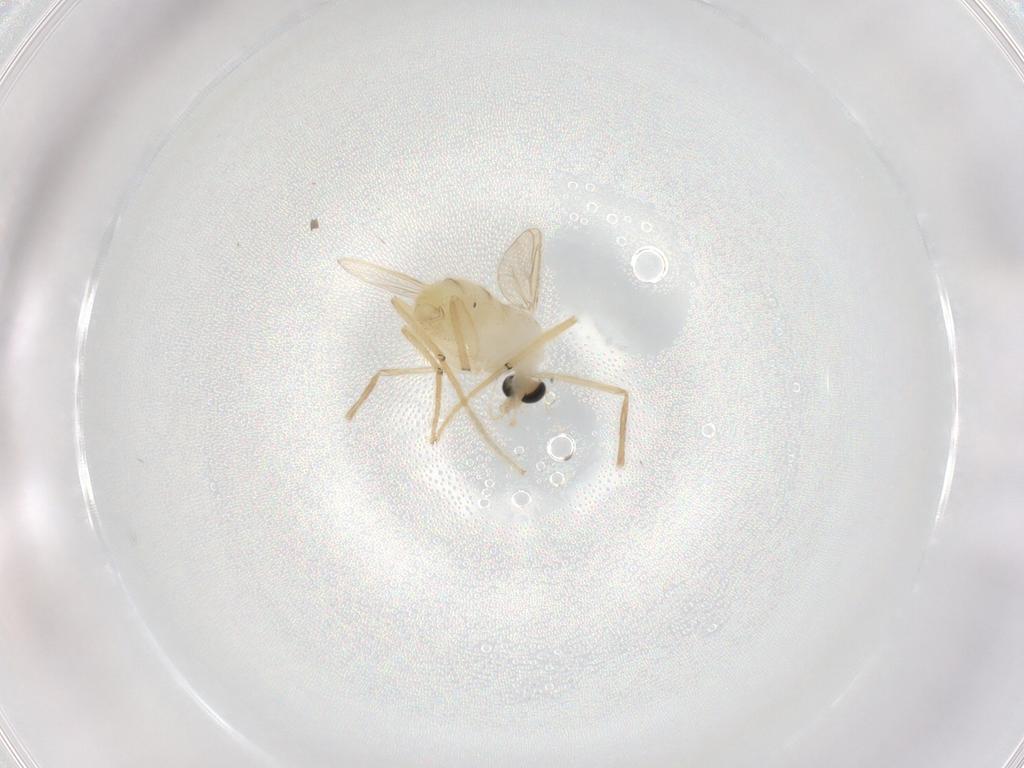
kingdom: Animalia
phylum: Arthropoda
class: Insecta
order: Diptera
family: Chironomidae
